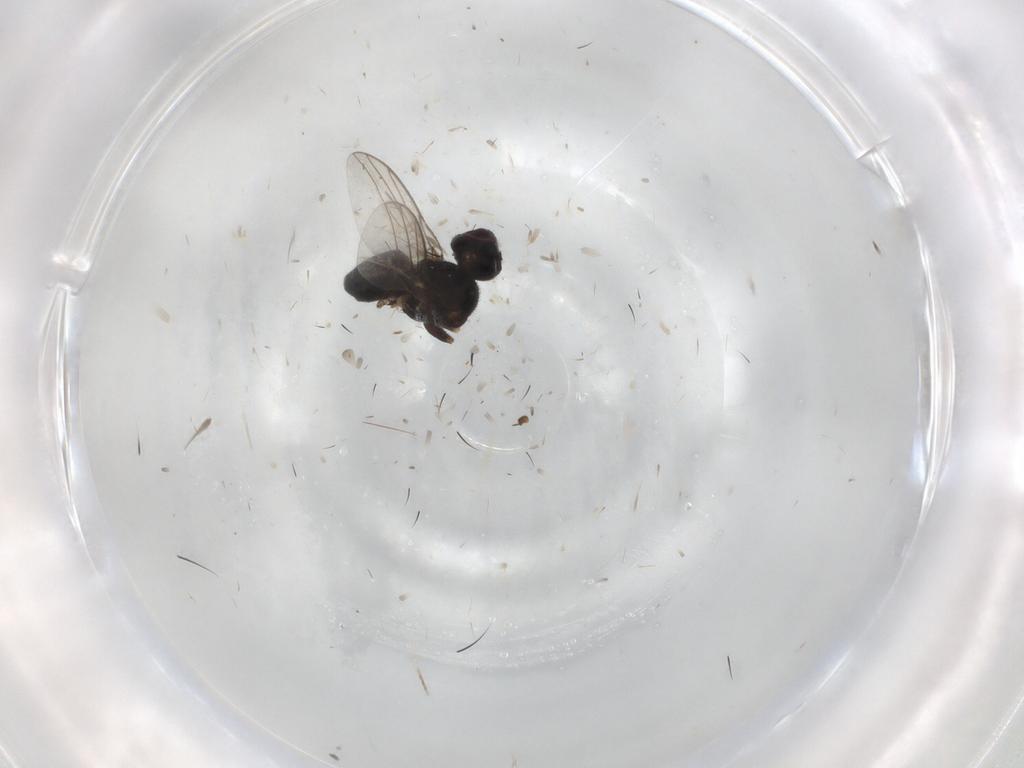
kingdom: Animalia
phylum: Arthropoda
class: Insecta
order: Diptera
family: Chloropidae
